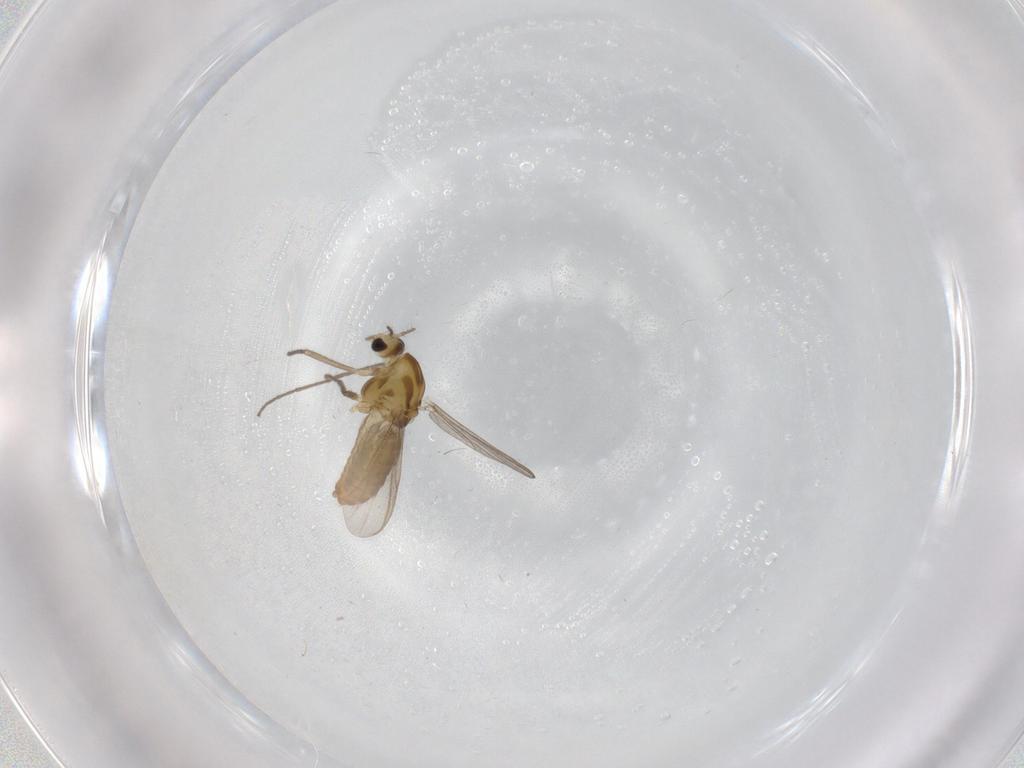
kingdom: Animalia
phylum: Arthropoda
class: Insecta
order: Diptera
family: Chironomidae
